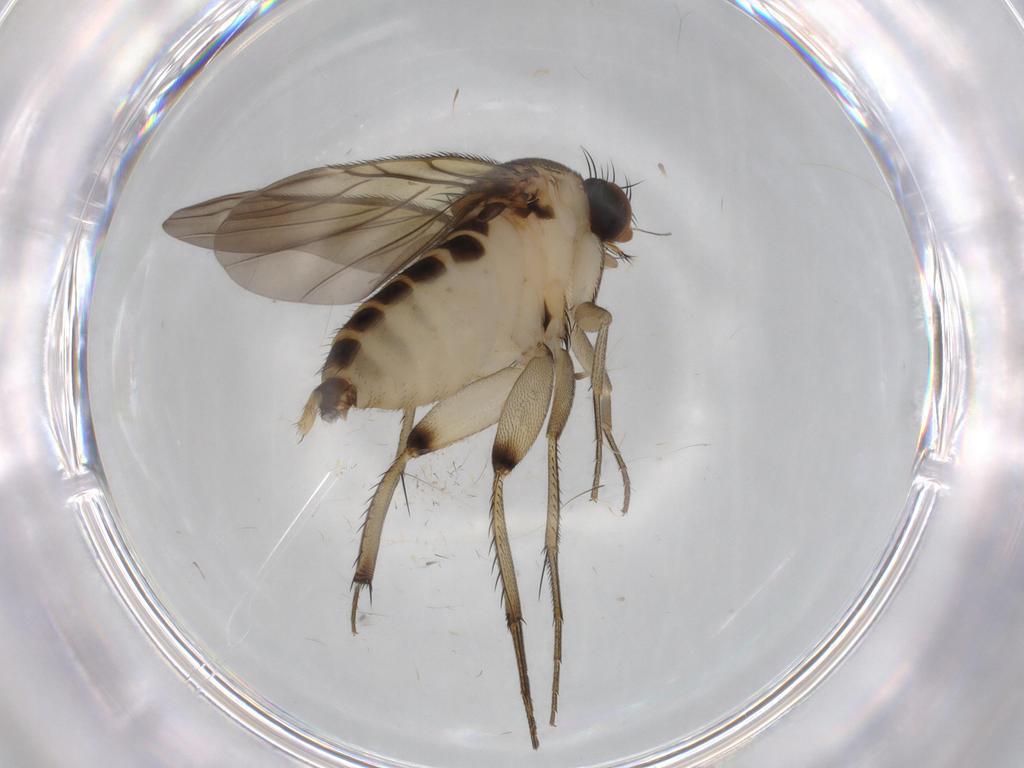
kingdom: Animalia
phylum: Arthropoda
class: Insecta
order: Diptera
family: Phoridae
